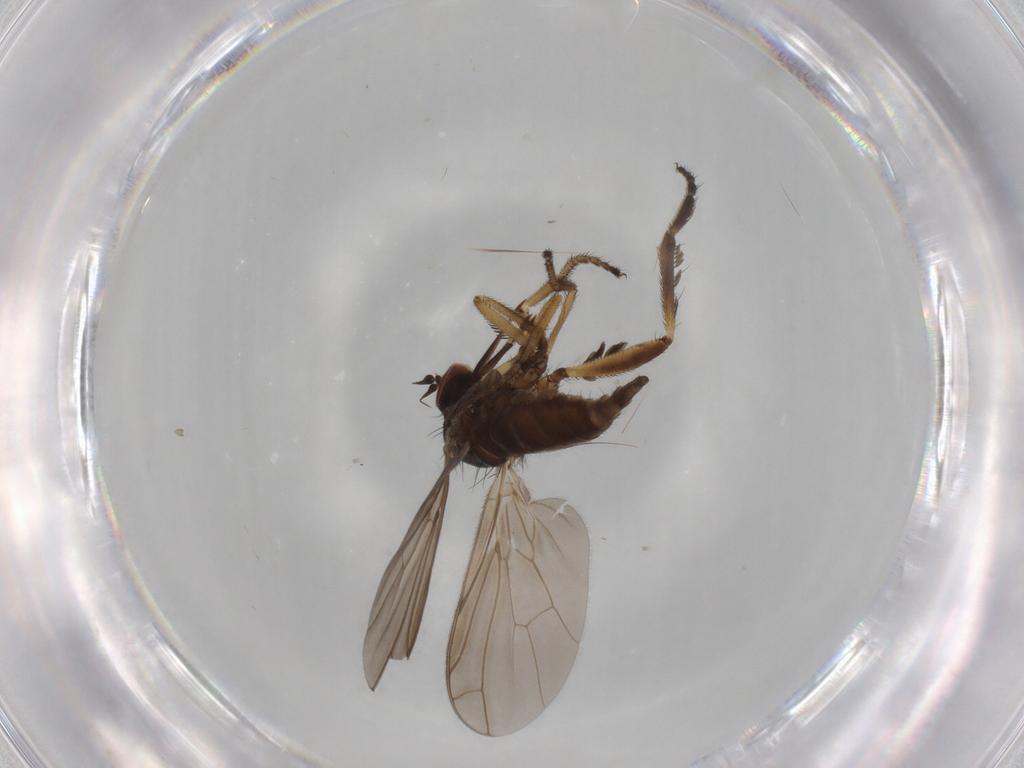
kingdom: Animalia
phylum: Arthropoda
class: Insecta
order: Diptera
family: Empididae
